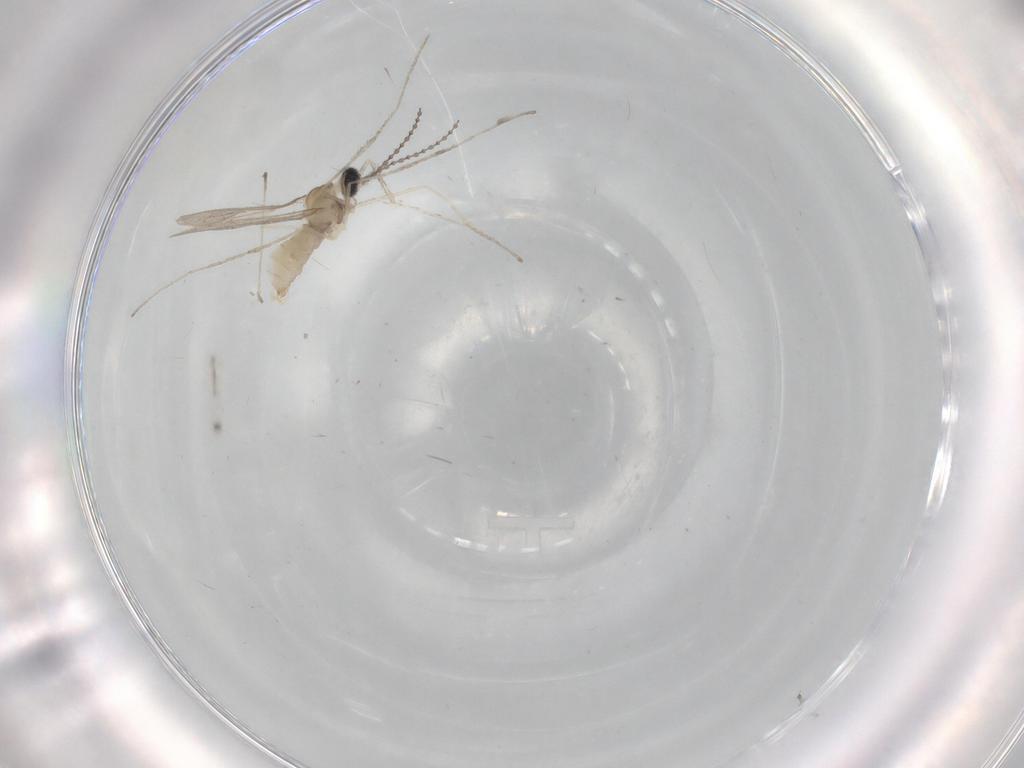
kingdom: Animalia
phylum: Arthropoda
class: Insecta
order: Diptera
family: Cecidomyiidae
